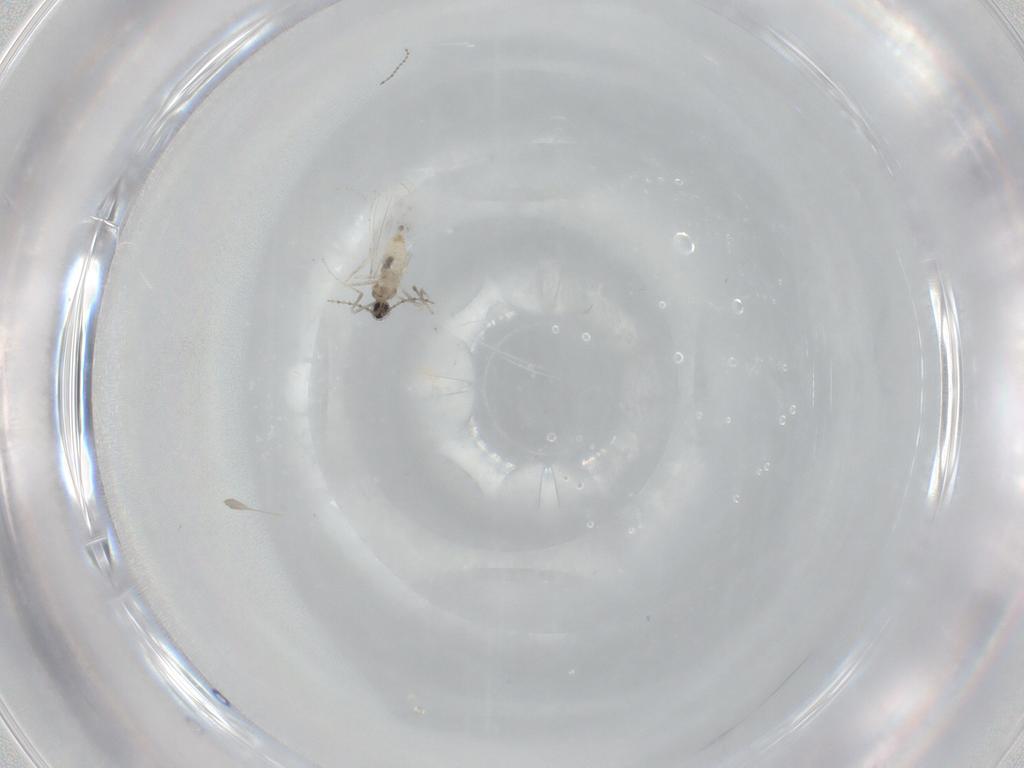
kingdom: Animalia
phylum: Arthropoda
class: Insecta
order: Diptera
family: Cecidomyiidae
